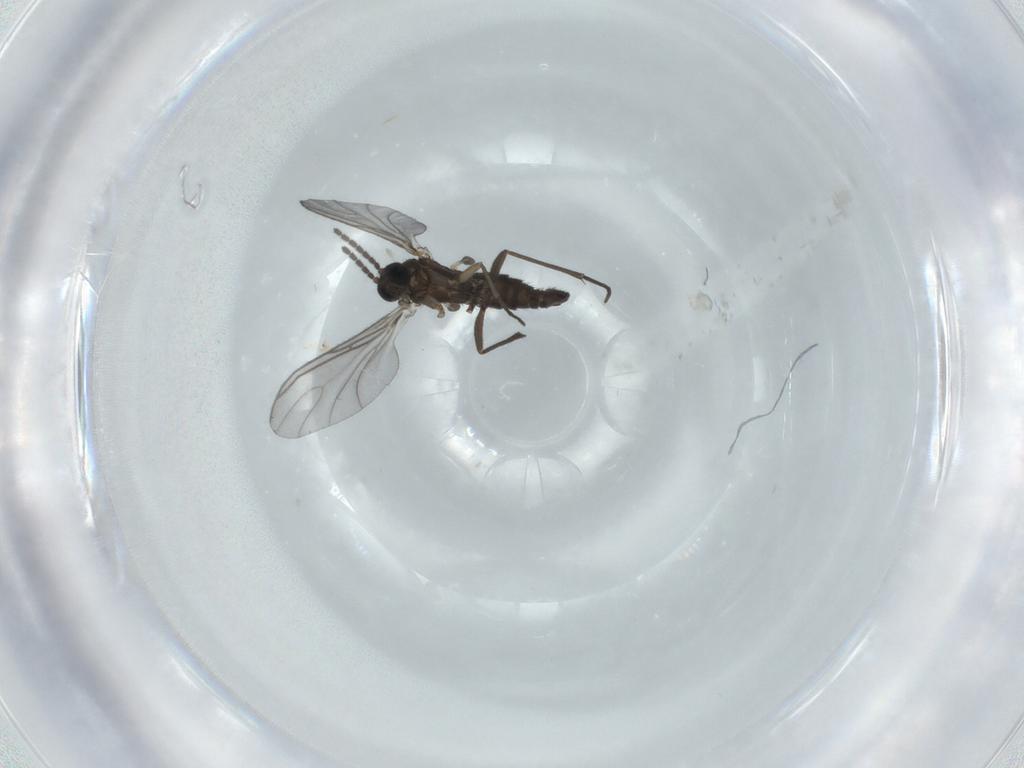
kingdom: Animalia
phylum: Arthropoda
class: Insecta
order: Diptera
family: Sciaridae
